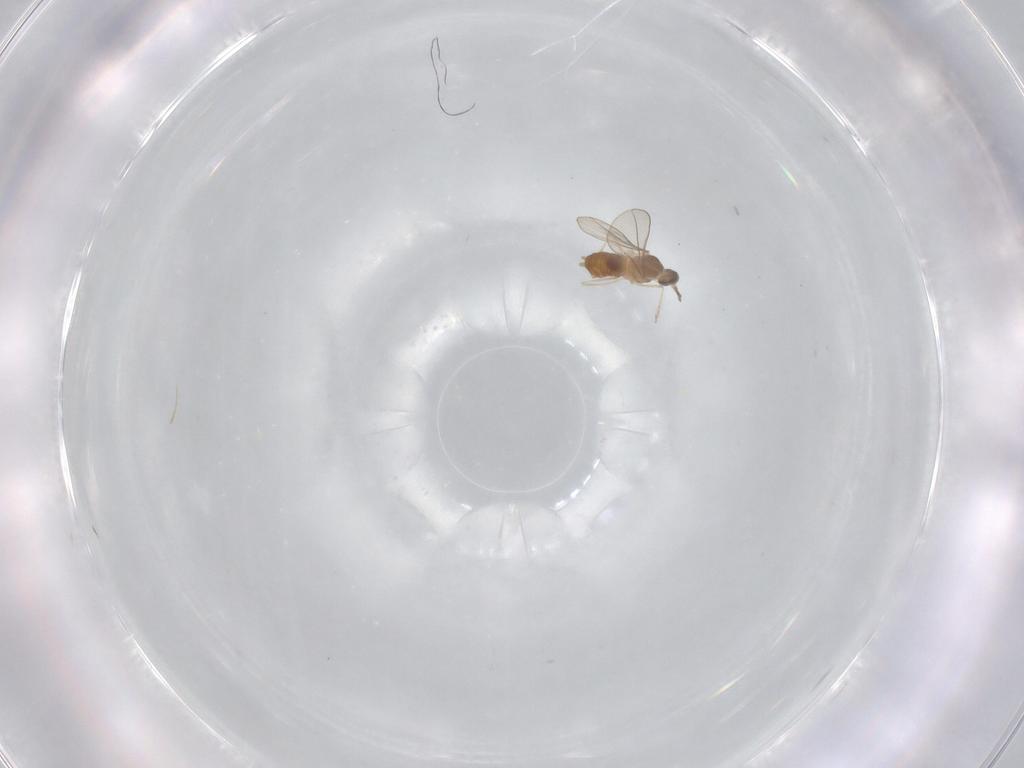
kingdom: Animalia
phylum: Arthropoda
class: Insecta
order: Diptera
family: Cecidomyiidae
